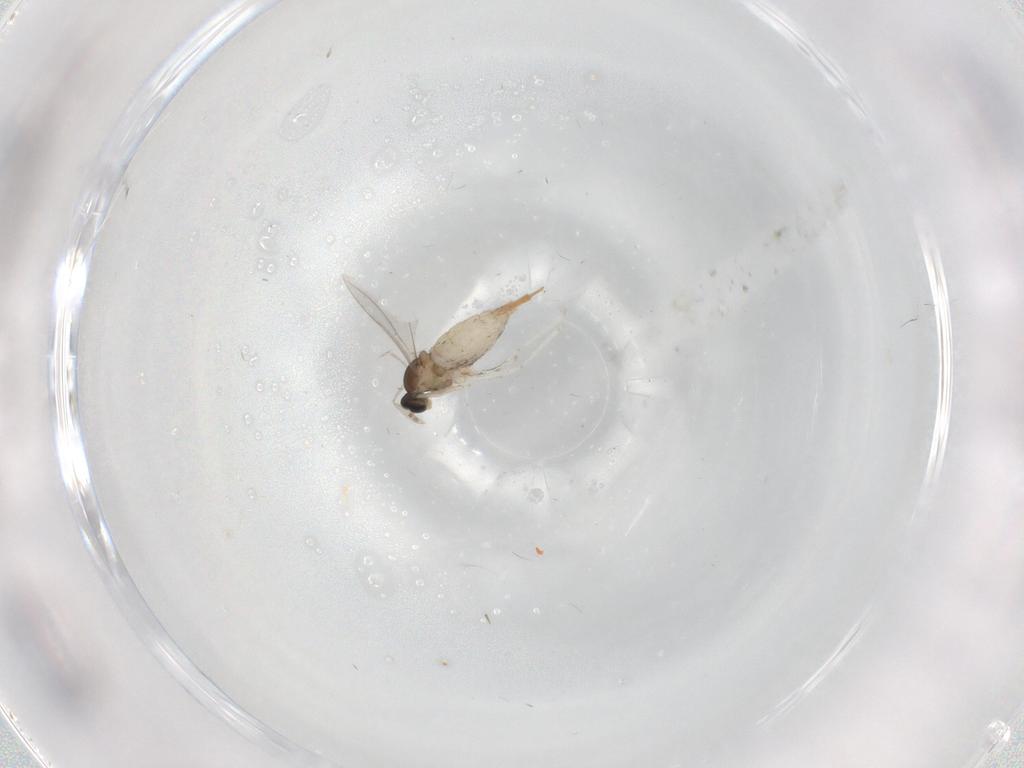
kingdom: Animalia
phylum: Arthropoda
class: Insecta
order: Diptera
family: Cecidomyiidae
